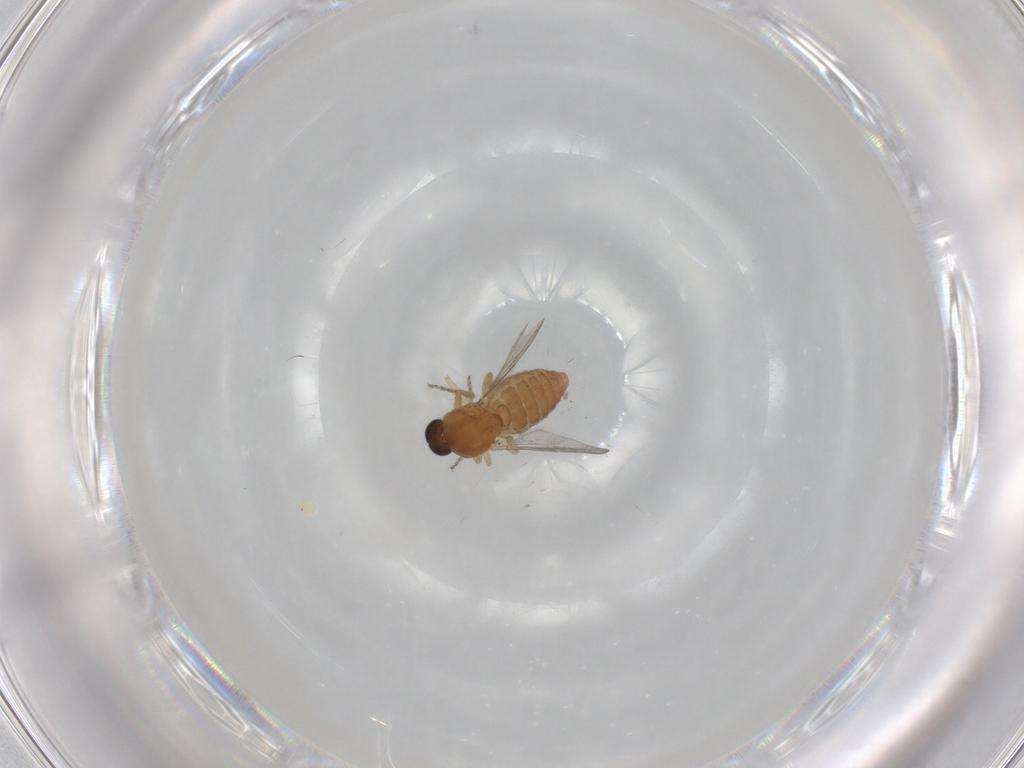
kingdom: Animalia
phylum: Arthropoda
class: Insecta
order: Diptera
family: Ceratopogonidae
